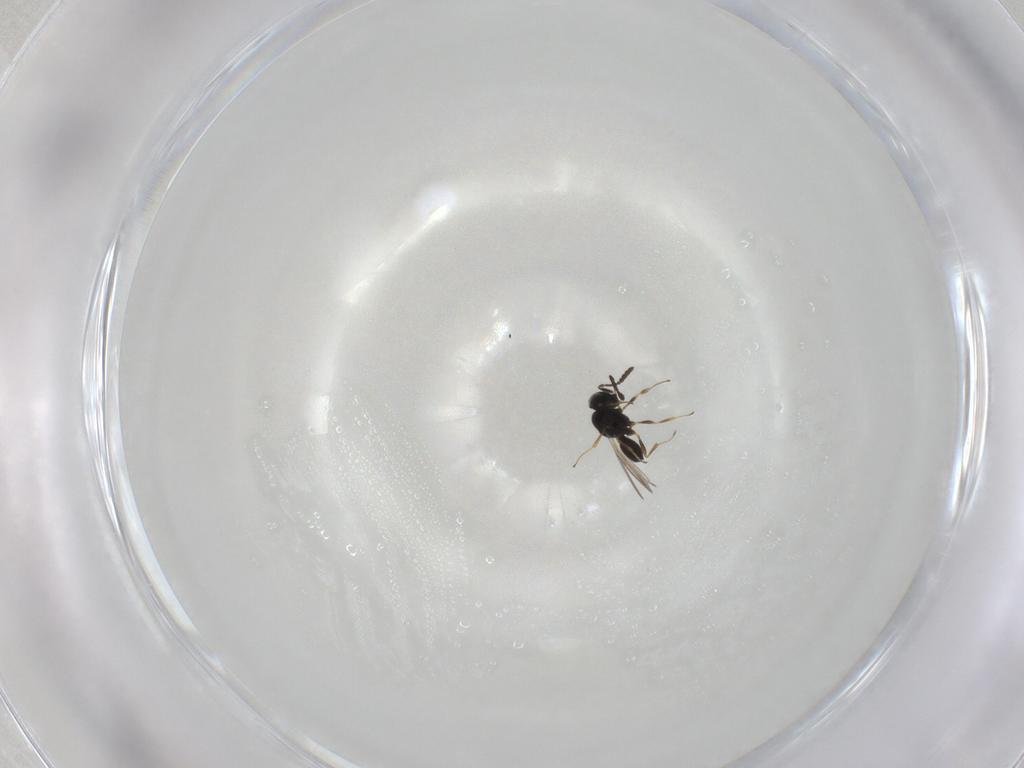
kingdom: Animalia
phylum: Arthropoda
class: Insecta
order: Hymenoptera
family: Scelionidae
